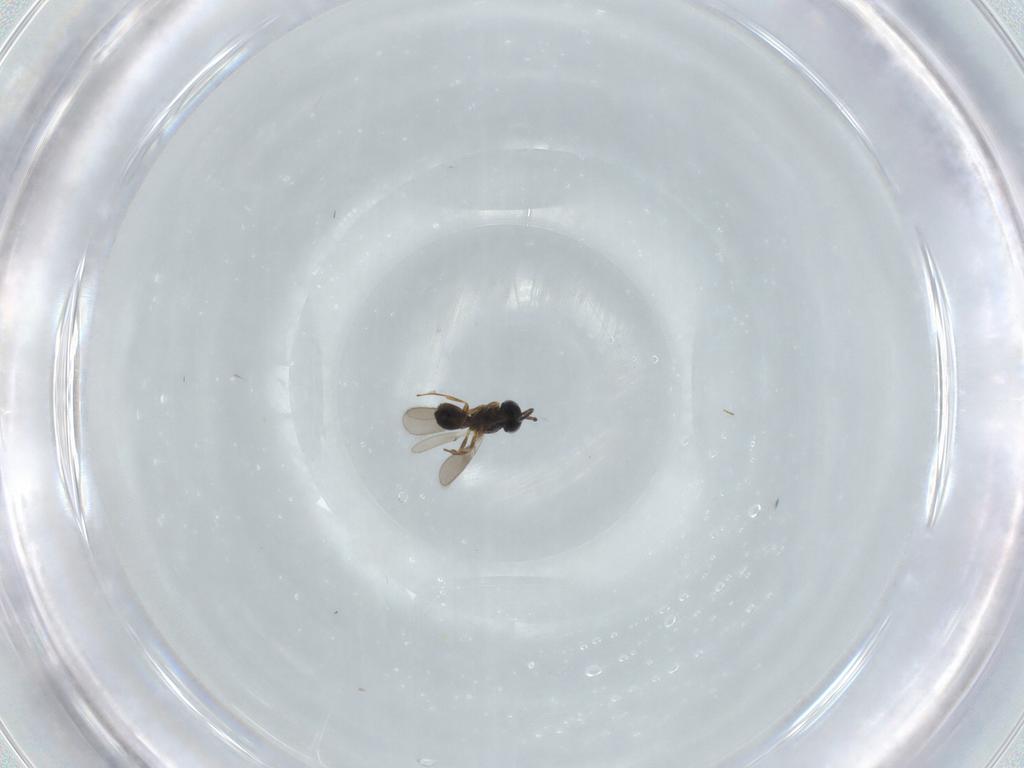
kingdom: Animalia
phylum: Arthropoda
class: Insecta
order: Hymenoptera
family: Scelionidae
